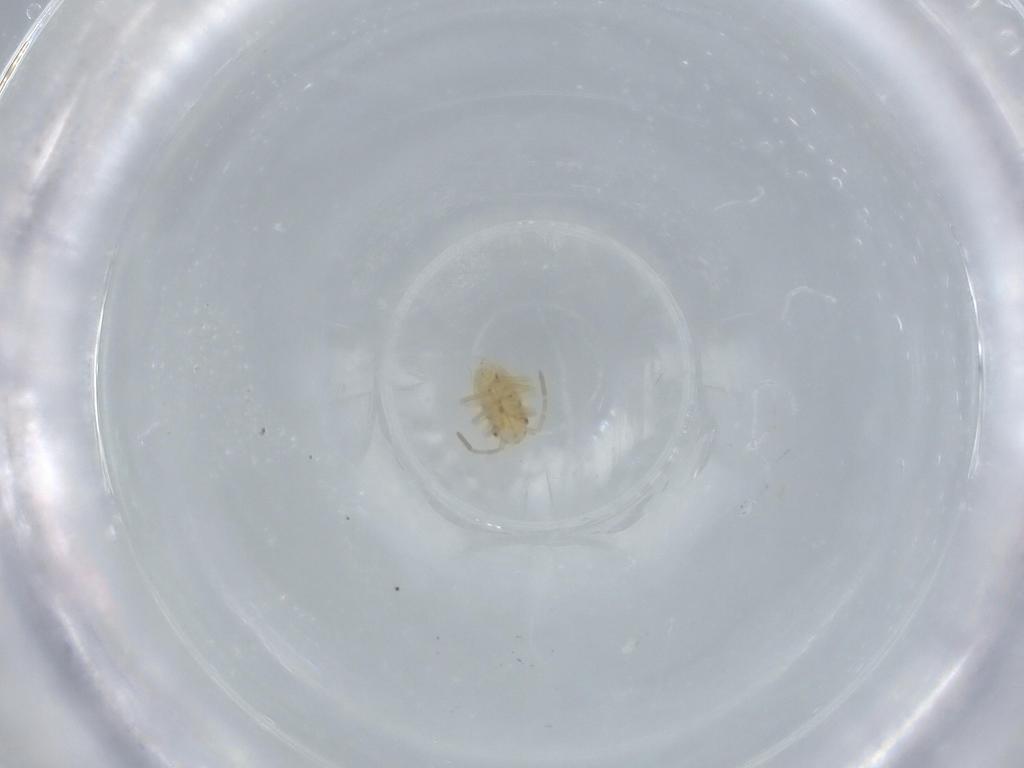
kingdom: Animalia
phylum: Arthropoda
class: Insecta
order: Hemiptera
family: Miridae
